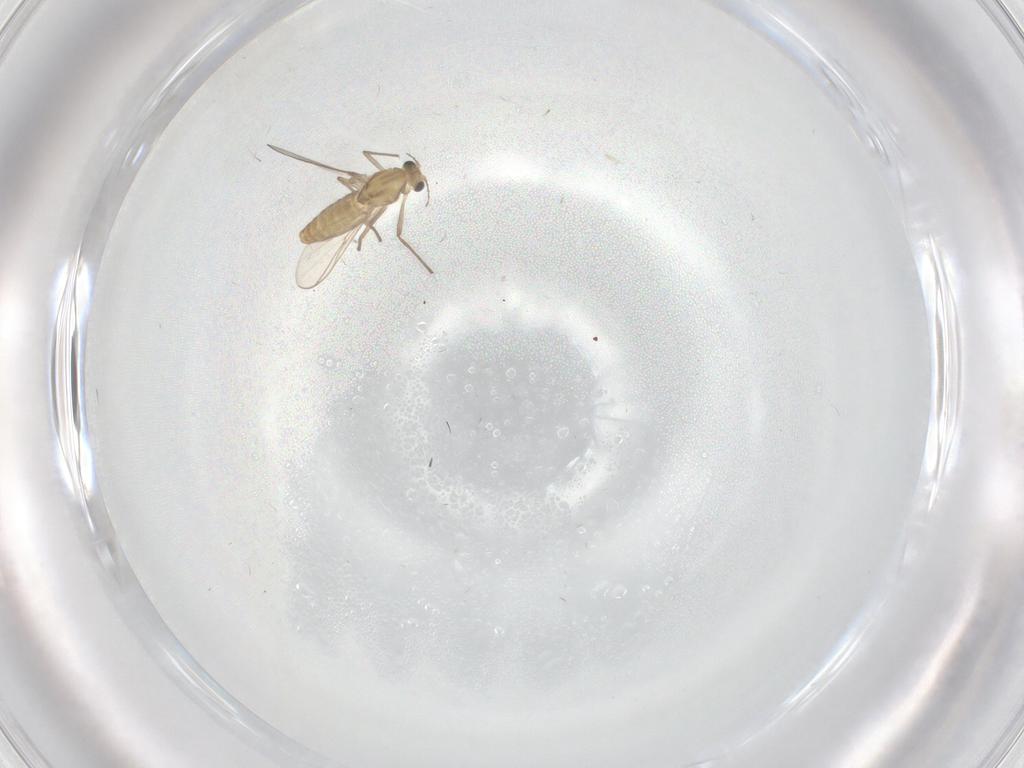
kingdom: Animalia
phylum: Arthropoda
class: Insecta
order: Diptera
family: Chironomidae
